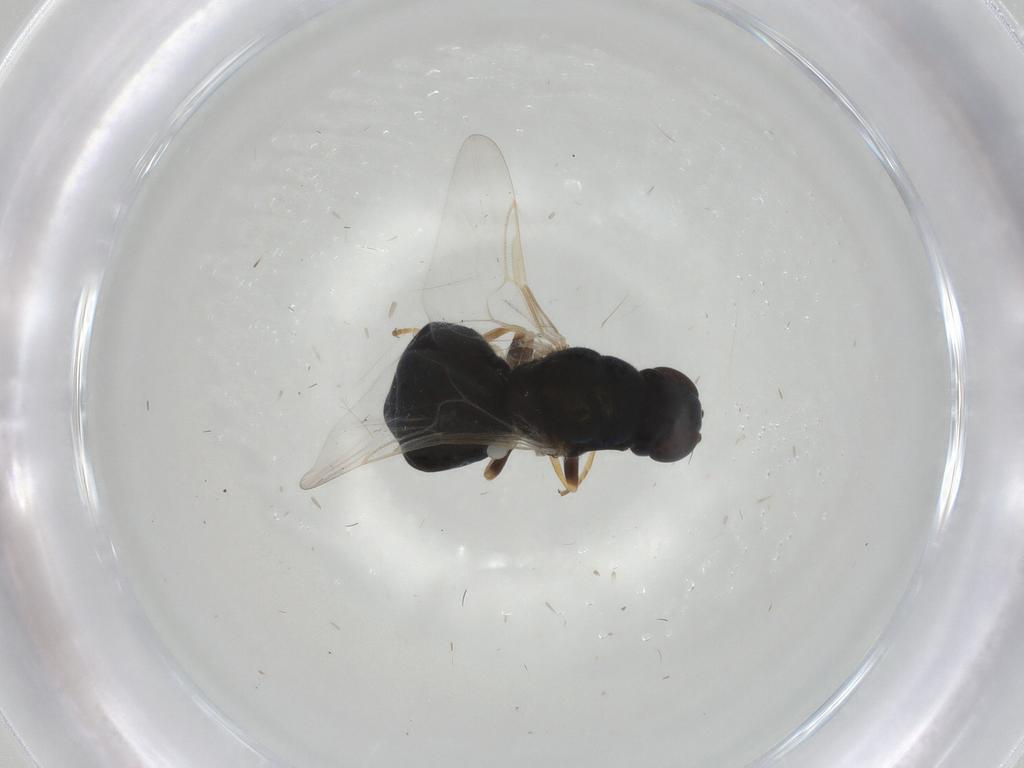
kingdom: Animalia
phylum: Arthropoda
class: Insecta
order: Diptera
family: Stratiomyidae
